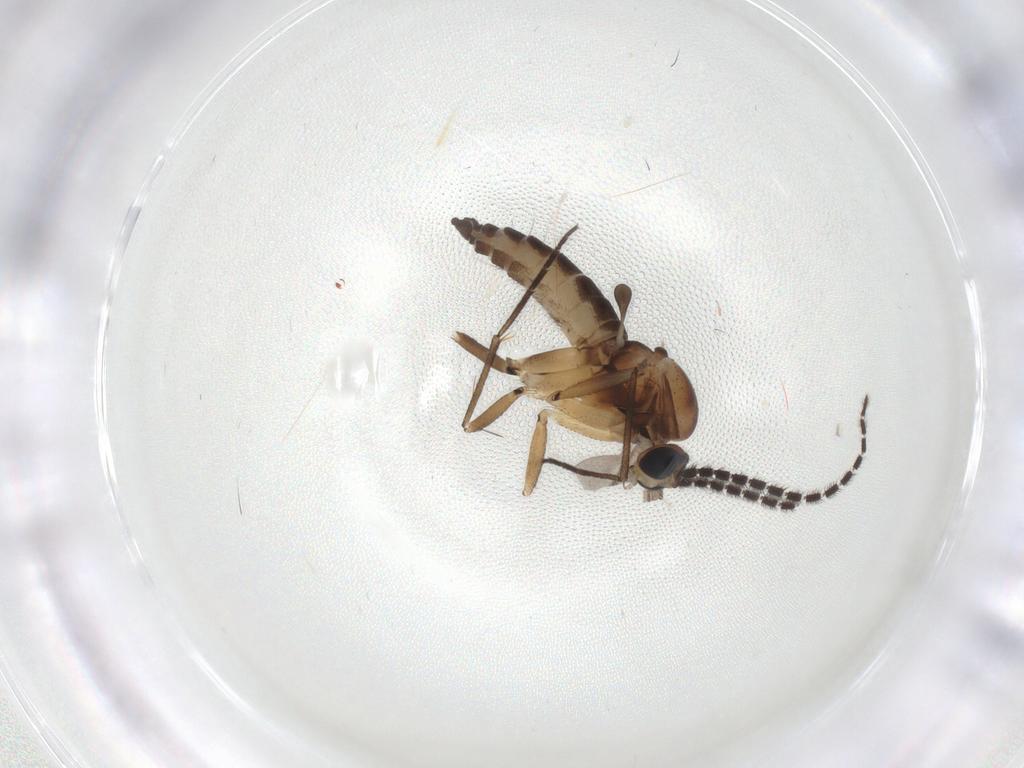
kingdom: Animalia
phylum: Arthropoda
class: Insecta
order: Diptera
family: Sciaridae
